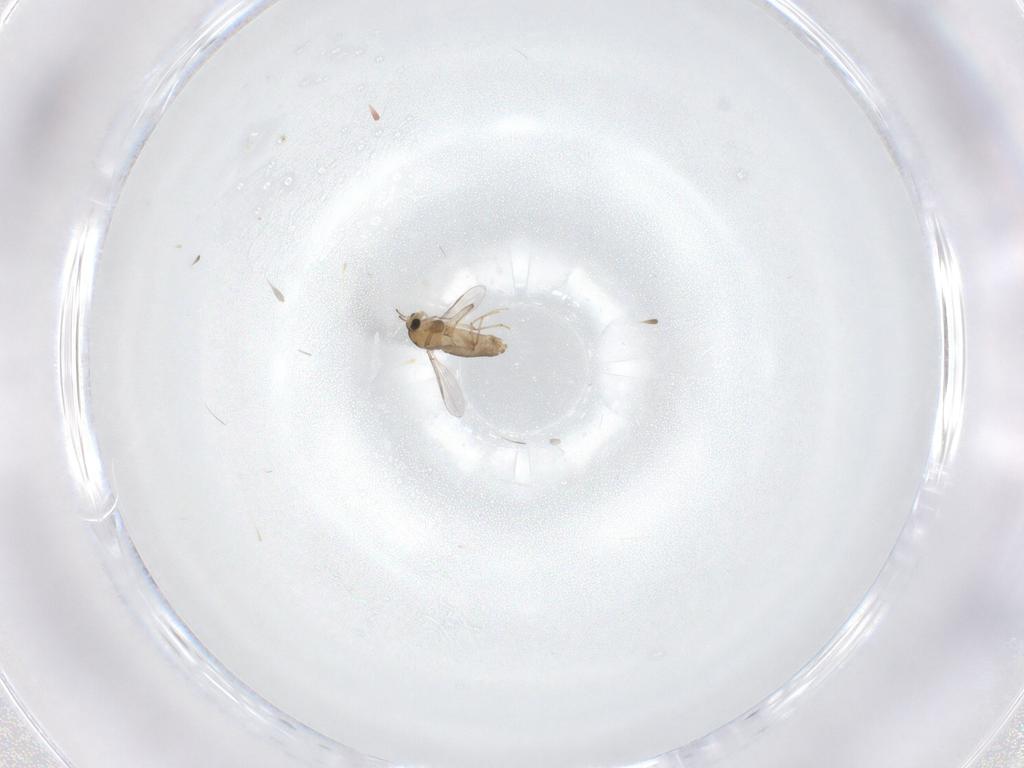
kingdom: Animalia
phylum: Arthropoda
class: Insecta
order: Diptera
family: Chironomidae
